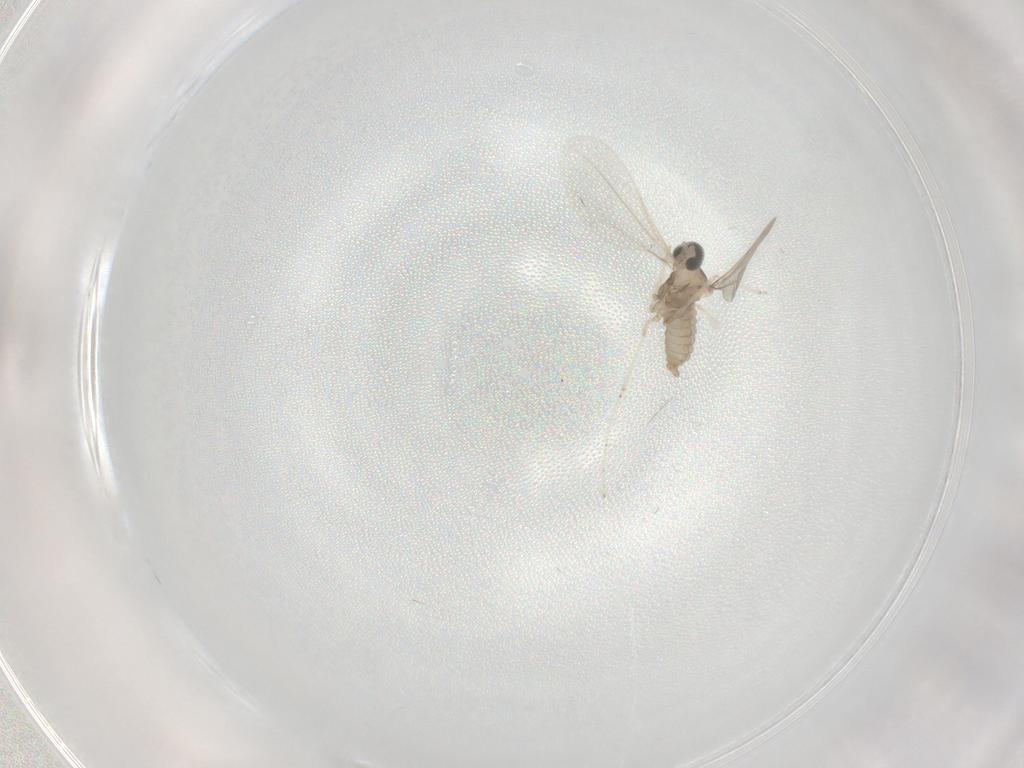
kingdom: Animalia
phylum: Arthropoda
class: Insecta
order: Diptera
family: Cecidomyiidae
